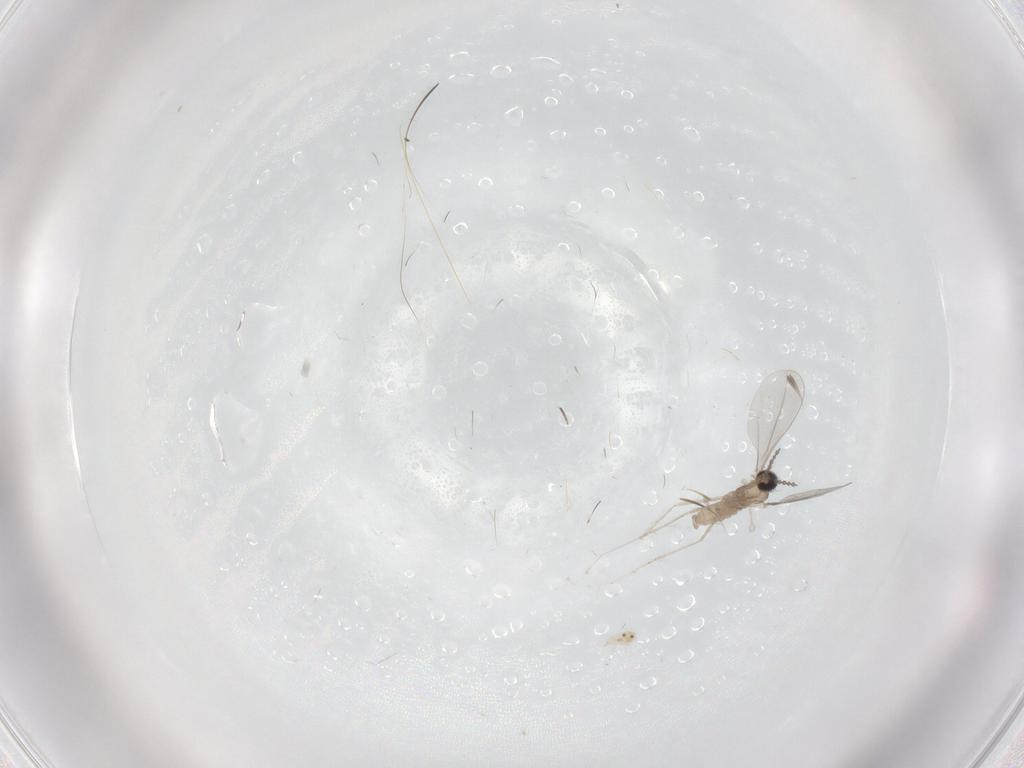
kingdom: Animalia
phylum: Arthropoda
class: Insecta
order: Diptera
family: Cecidomyiidae
